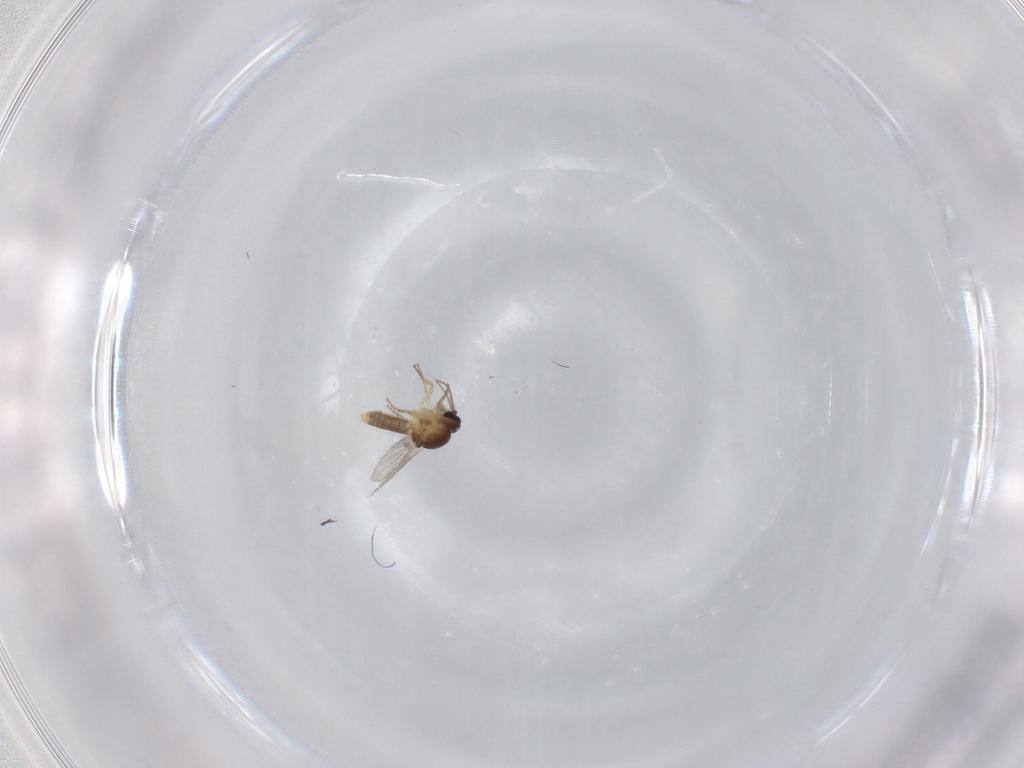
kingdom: Animalia
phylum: Arthropoda
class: Insecta
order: Diptera
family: Ceratopogonidae
